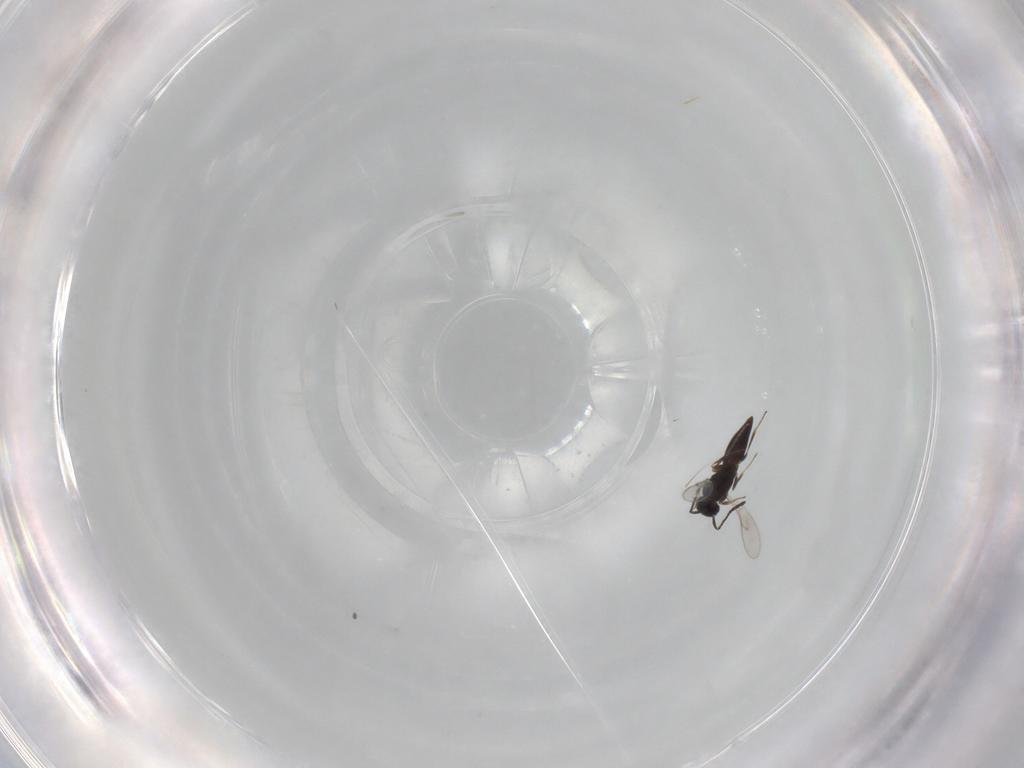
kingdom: Animalia
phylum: Arthropoda
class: Insecta
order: Hymenoptera
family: Scelionidae
